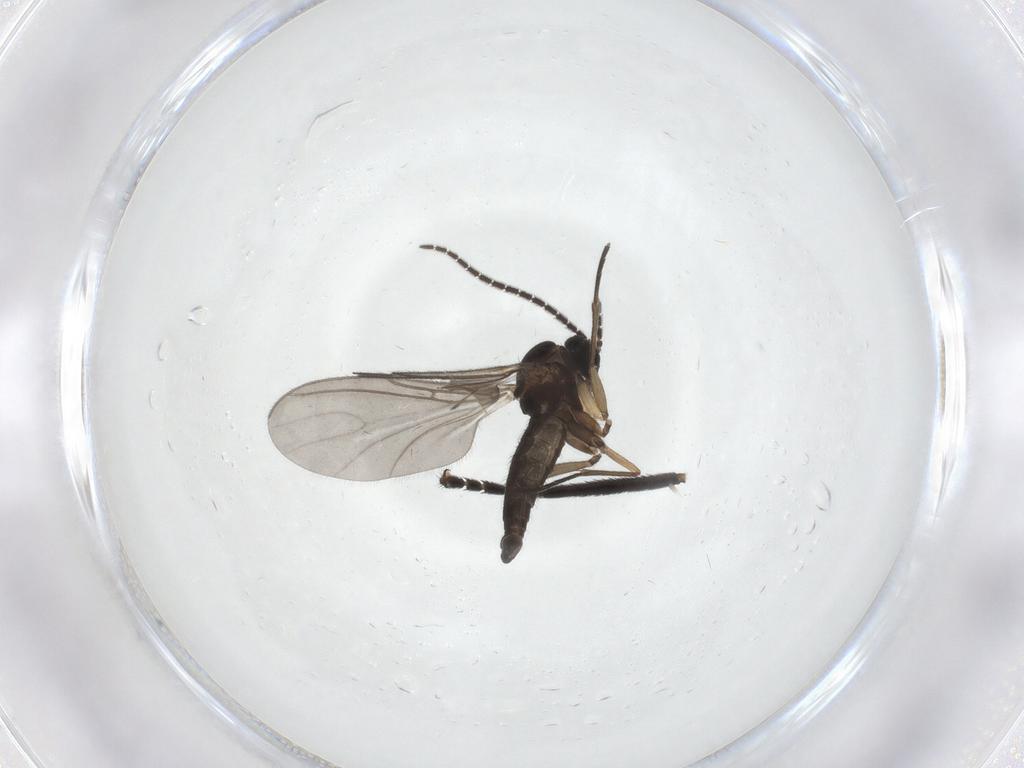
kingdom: Animalia
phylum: Arthropoda
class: Insecta
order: Diptera
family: Sciaridae
